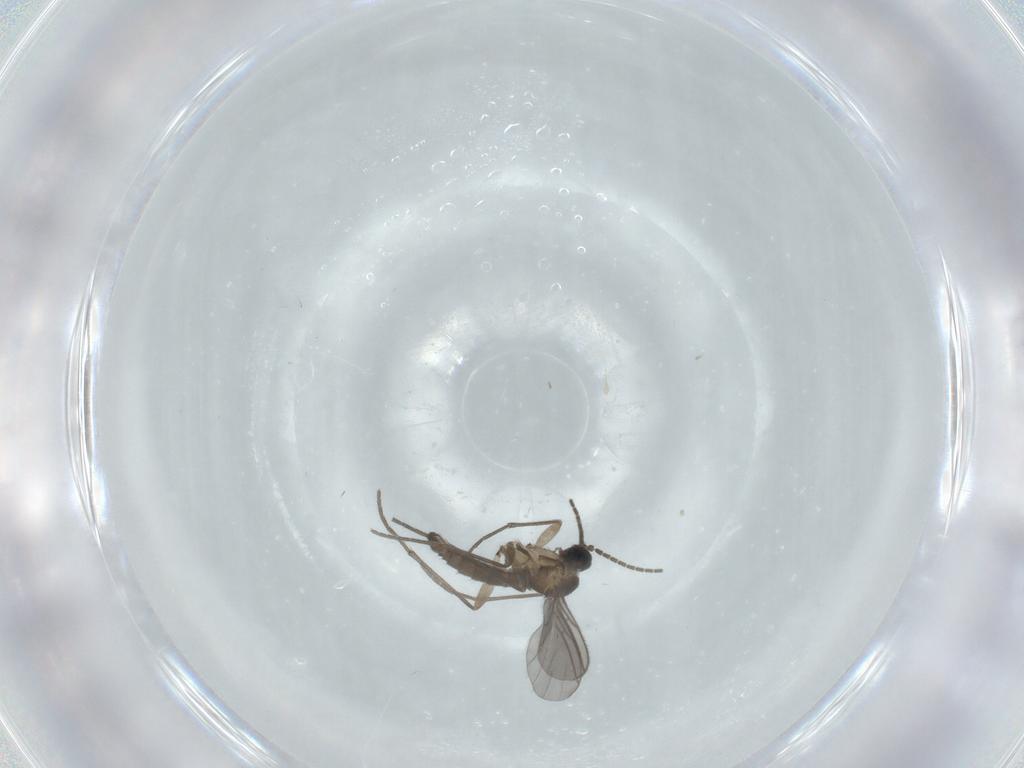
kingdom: Animalia
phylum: Arthropoda
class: Insecta
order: Diptera
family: Sciaridae
